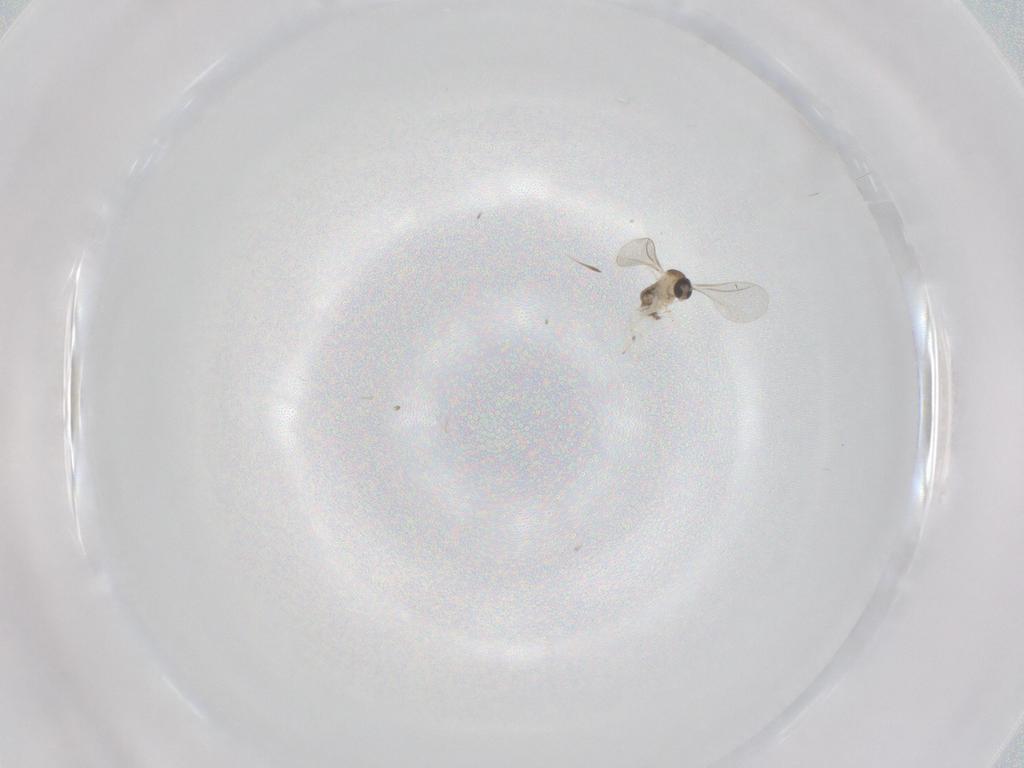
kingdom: Animalia
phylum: Arthropoda
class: Insecta
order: Diptera
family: Cecidomyiidae
